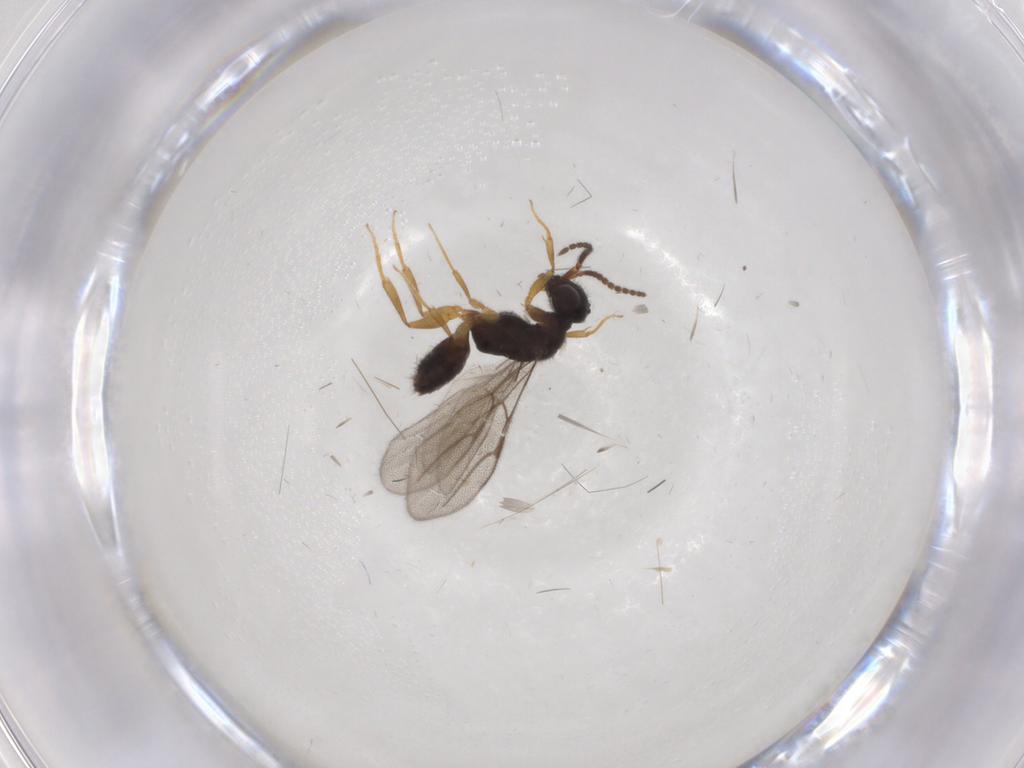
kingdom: Animalia
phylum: Arthropoda
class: Insecta
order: Hymenoptera
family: Bethylidae
